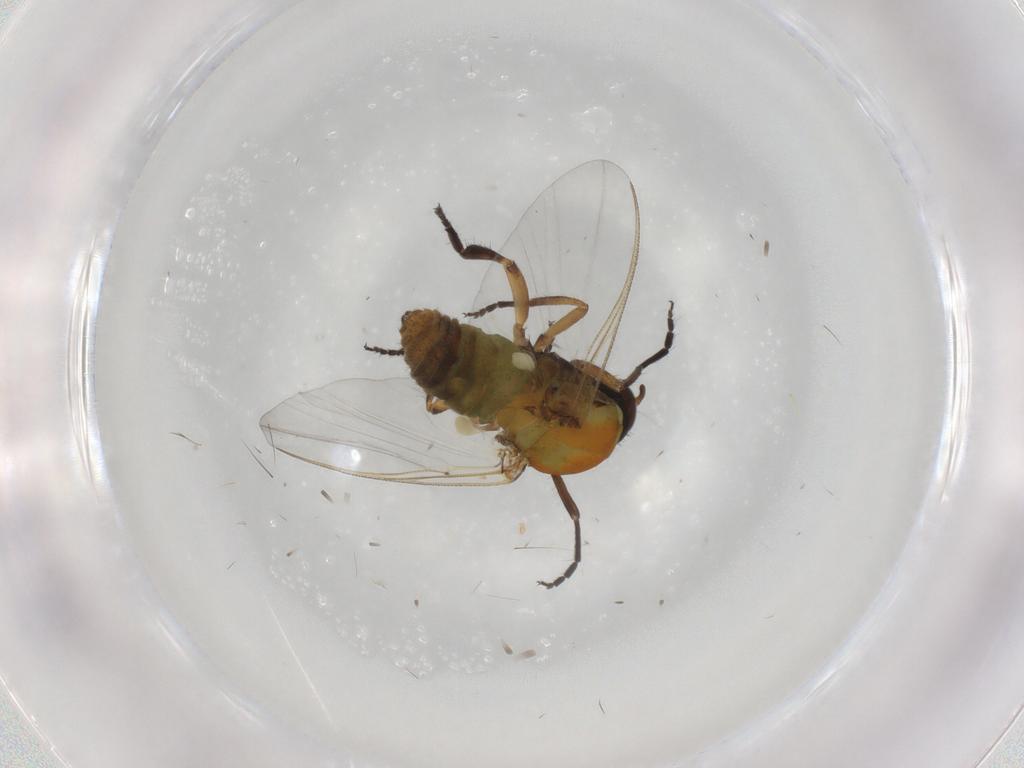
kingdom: Animalia
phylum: Arthropoda
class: Insecta
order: Diptera
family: Simuliidae
